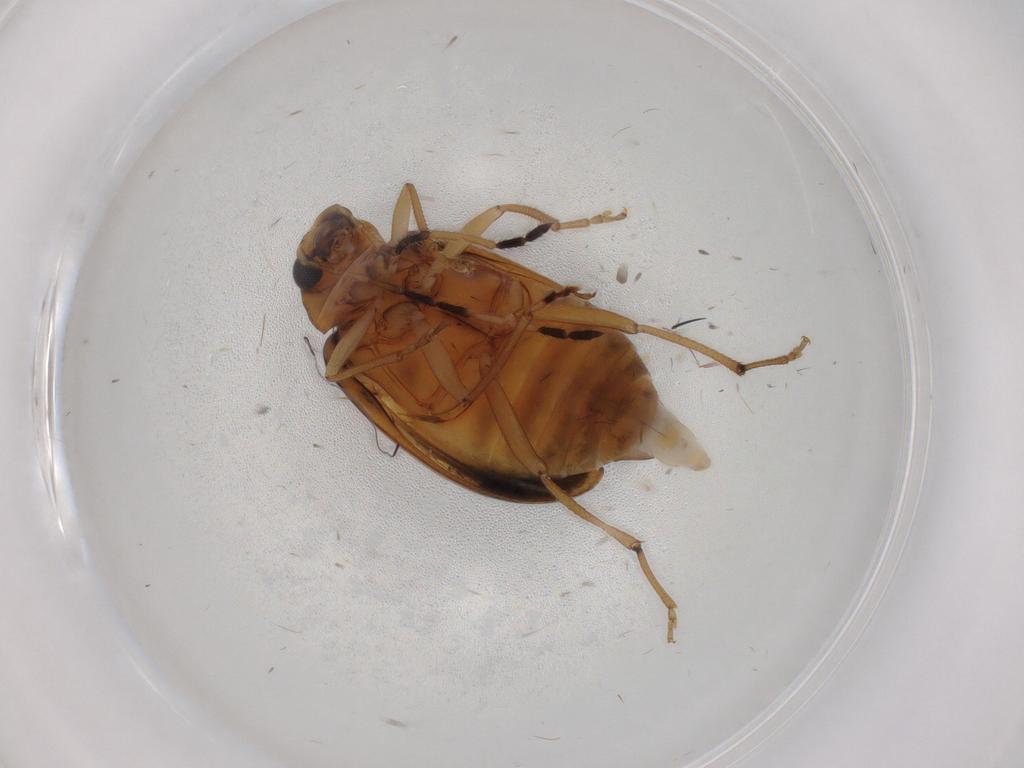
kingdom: Animalia
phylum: Arthropoda
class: Insecta
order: Coleoptera
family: Chrysomelidae
